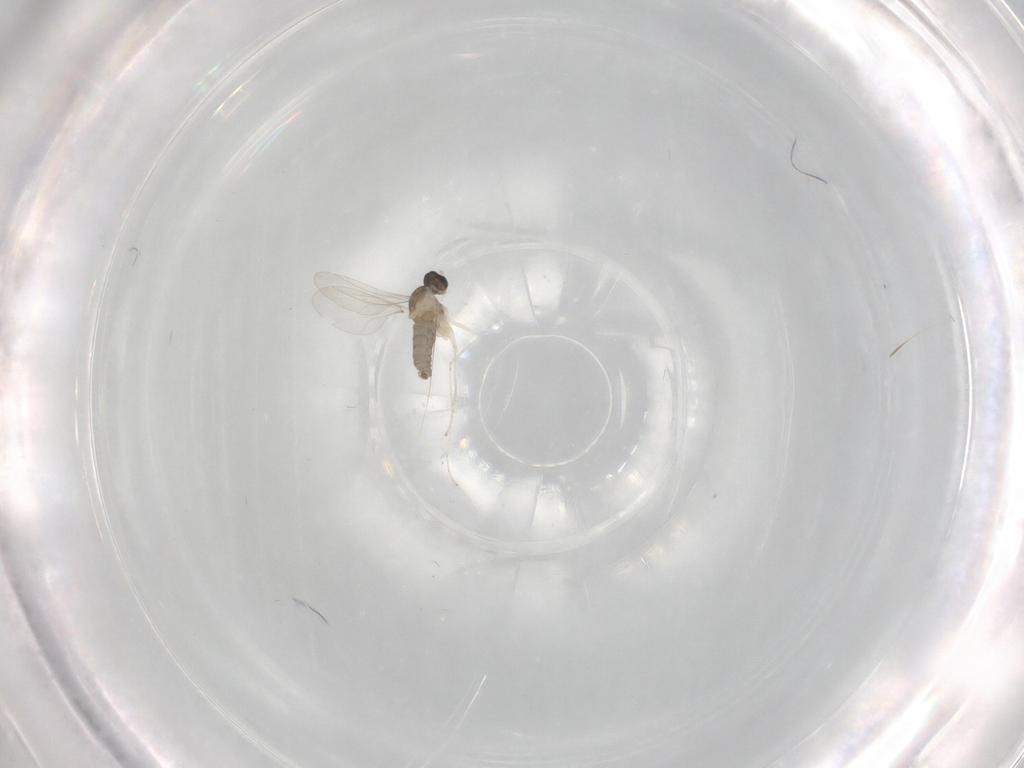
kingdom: Animalia
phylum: Arthropoda
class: Insecta
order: Diptera
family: Cecidomyiidae
